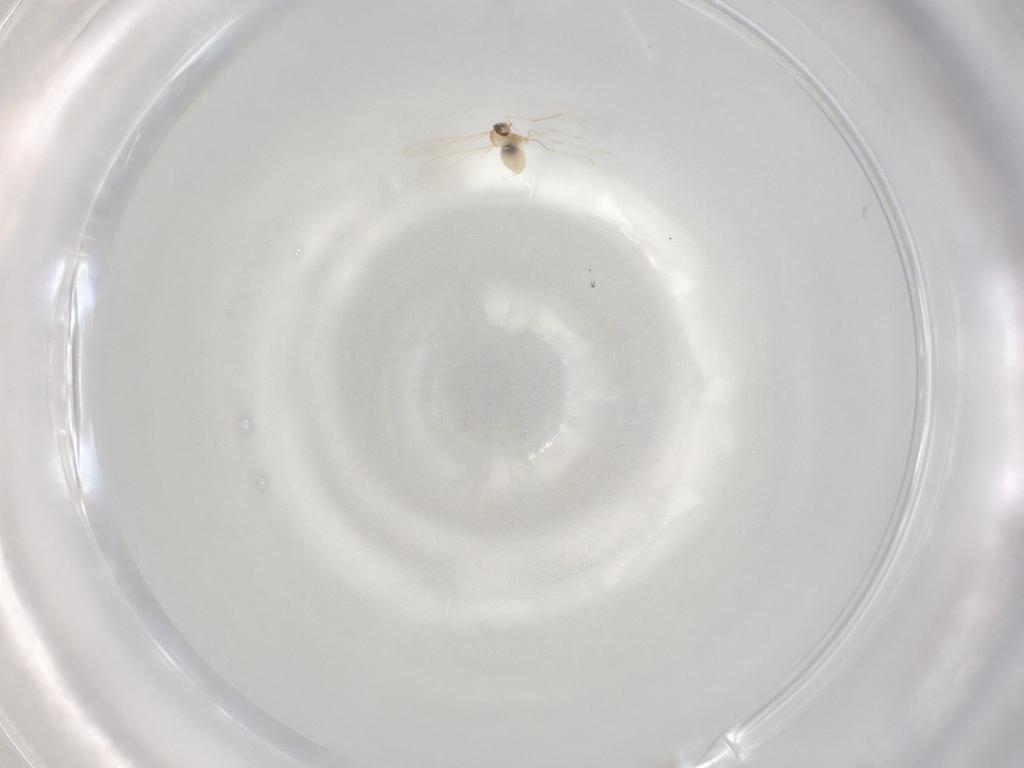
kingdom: Animalia
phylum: Arthropoda
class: Insecta
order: Diptera
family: Cecidomyiidae
